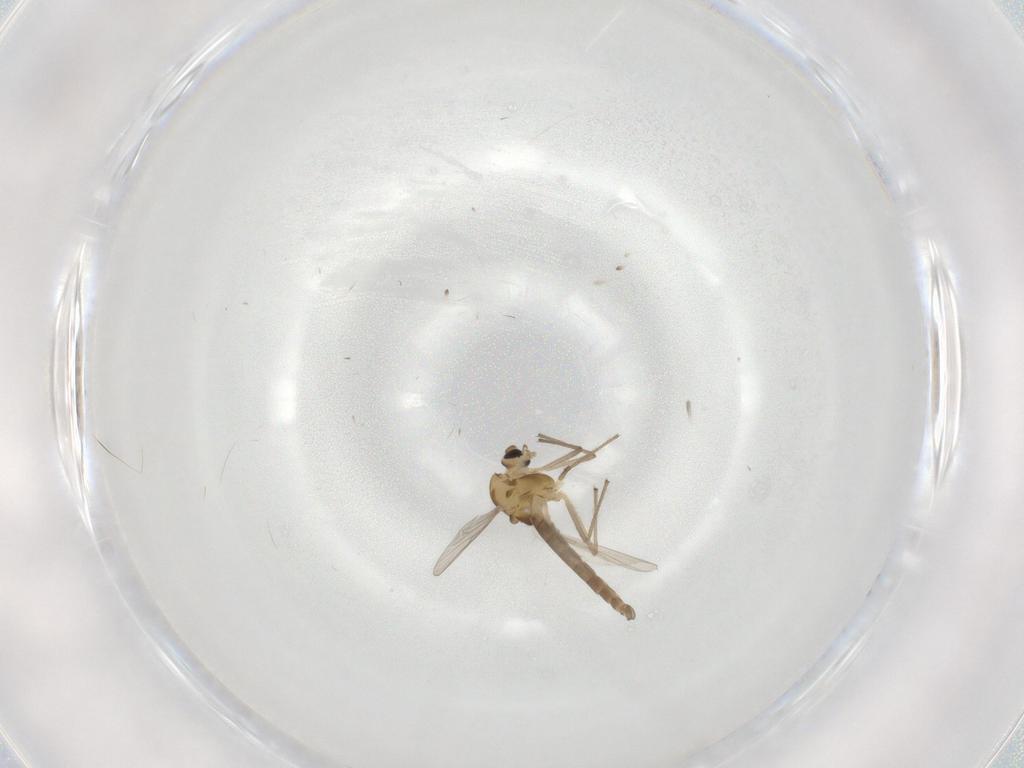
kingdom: Animalia
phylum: Arthropoda
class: Insecta
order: Diptera
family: Chironomidae
